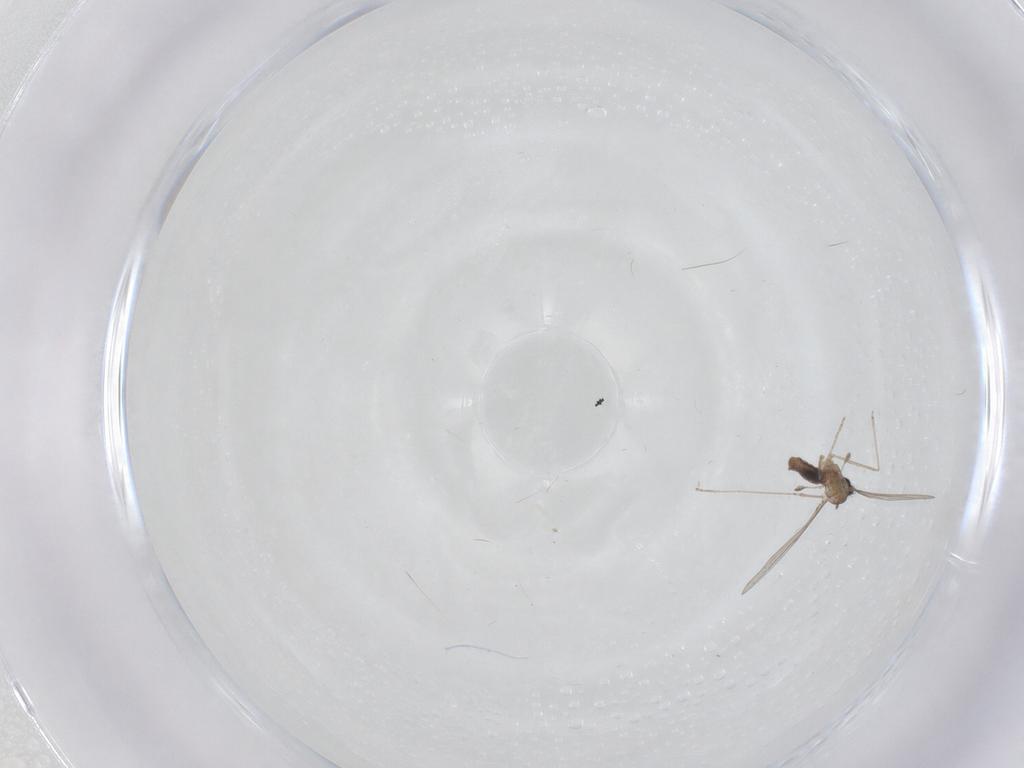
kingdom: Animalia
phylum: Arthropoda
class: Insecta
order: Diptera
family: Cecidomyiidae
